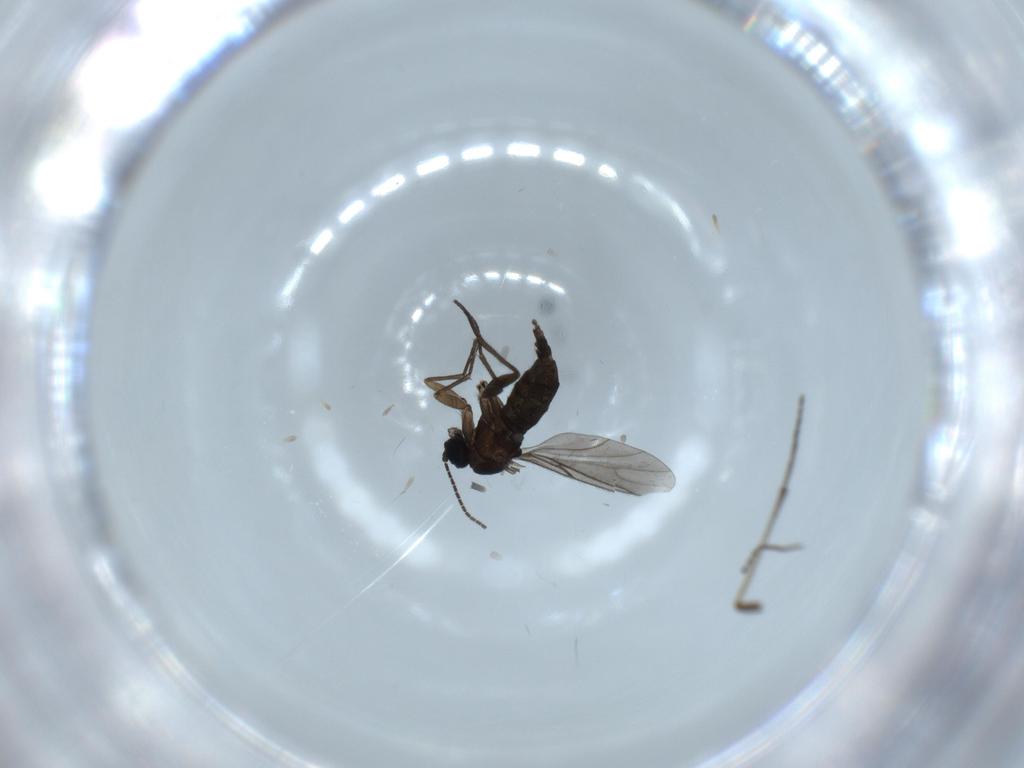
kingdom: Animalia
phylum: Arthropoda
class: Insecta
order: Diptera
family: Sciaridae
